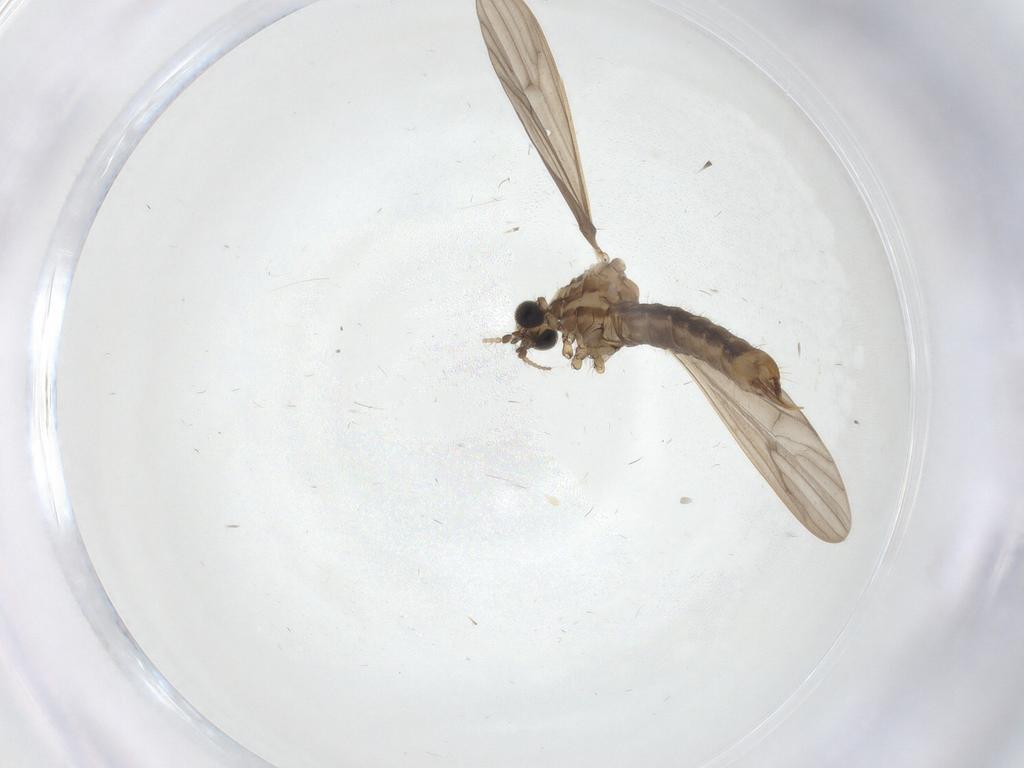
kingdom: Animalia
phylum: Arthropoda
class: Insecta
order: Diptera
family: Limoniidae
